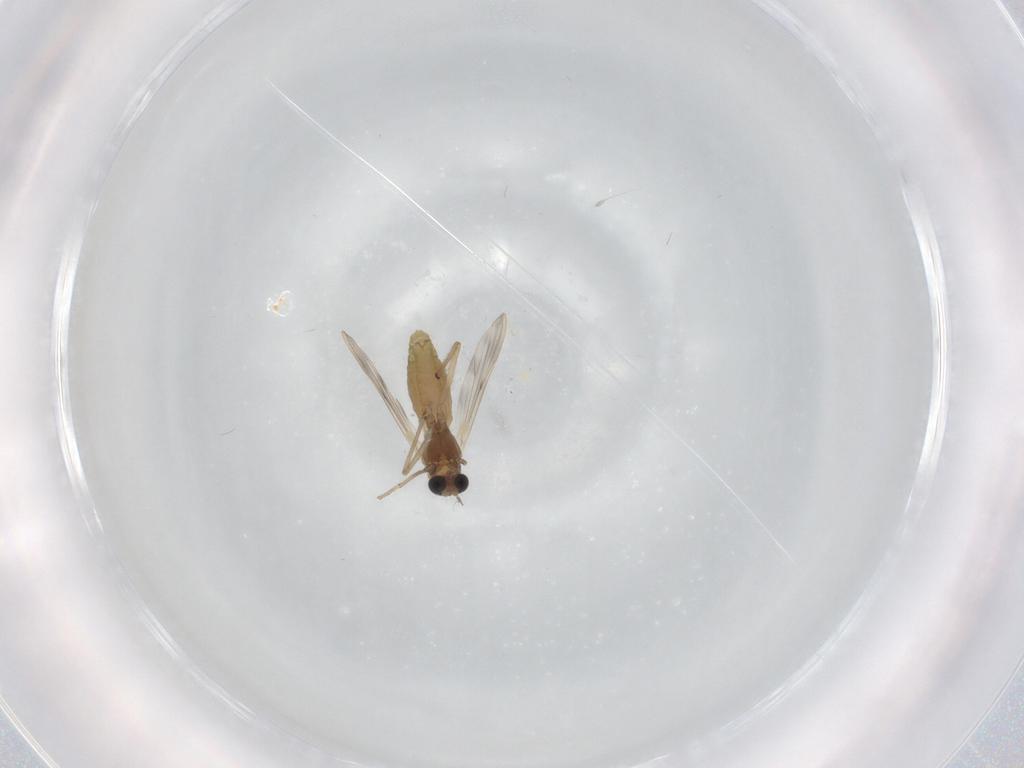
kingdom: Animalia
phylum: Arthropoda
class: Insecta
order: Diptera
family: Chironomidae
